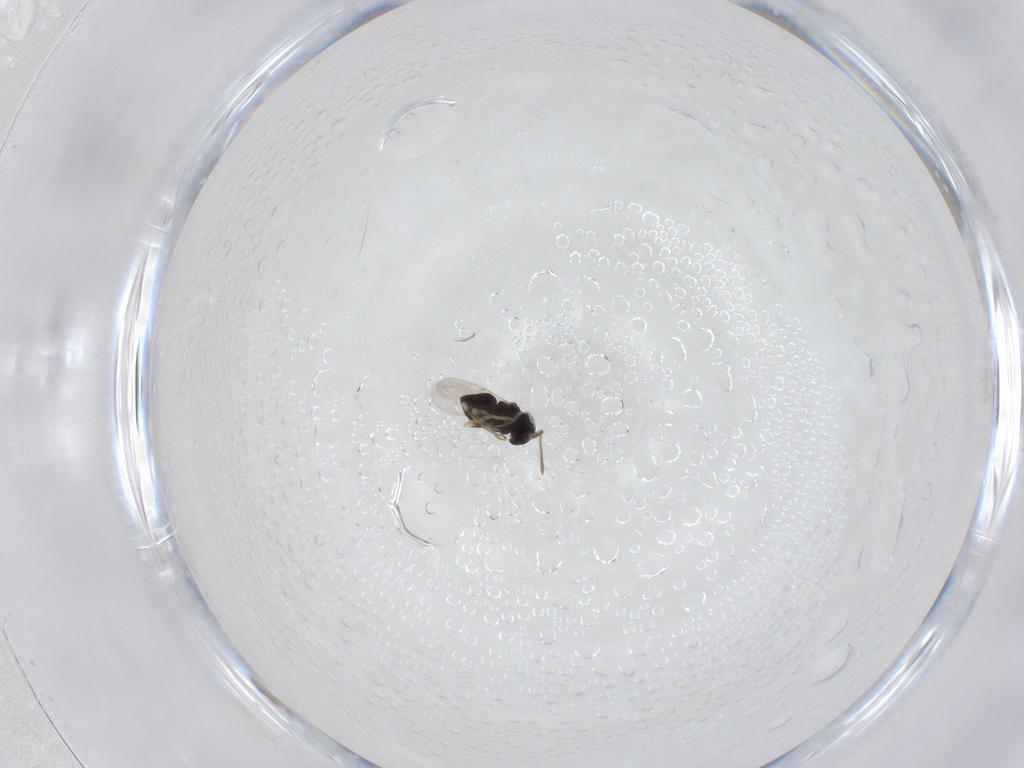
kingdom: Animalia
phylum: Arthropoda
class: Insecta
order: Hymenoptera
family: Encyrtidae
